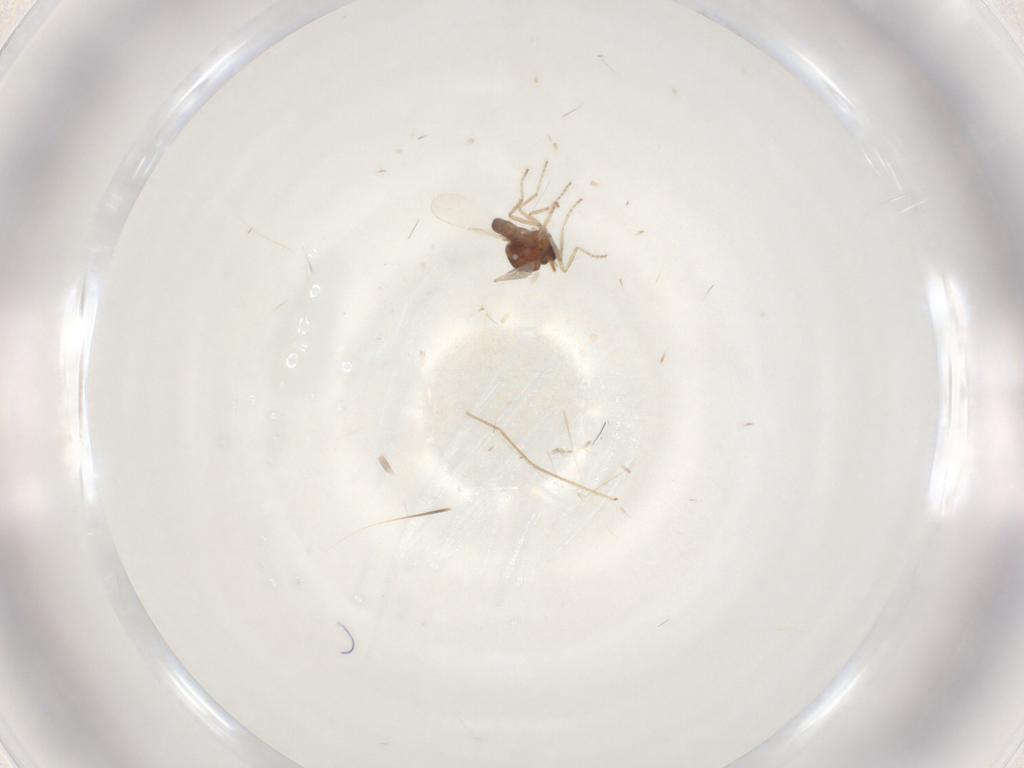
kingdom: Animalia
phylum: Arthropoda
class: Insecta
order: Diptera
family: Ceratopogonidae
